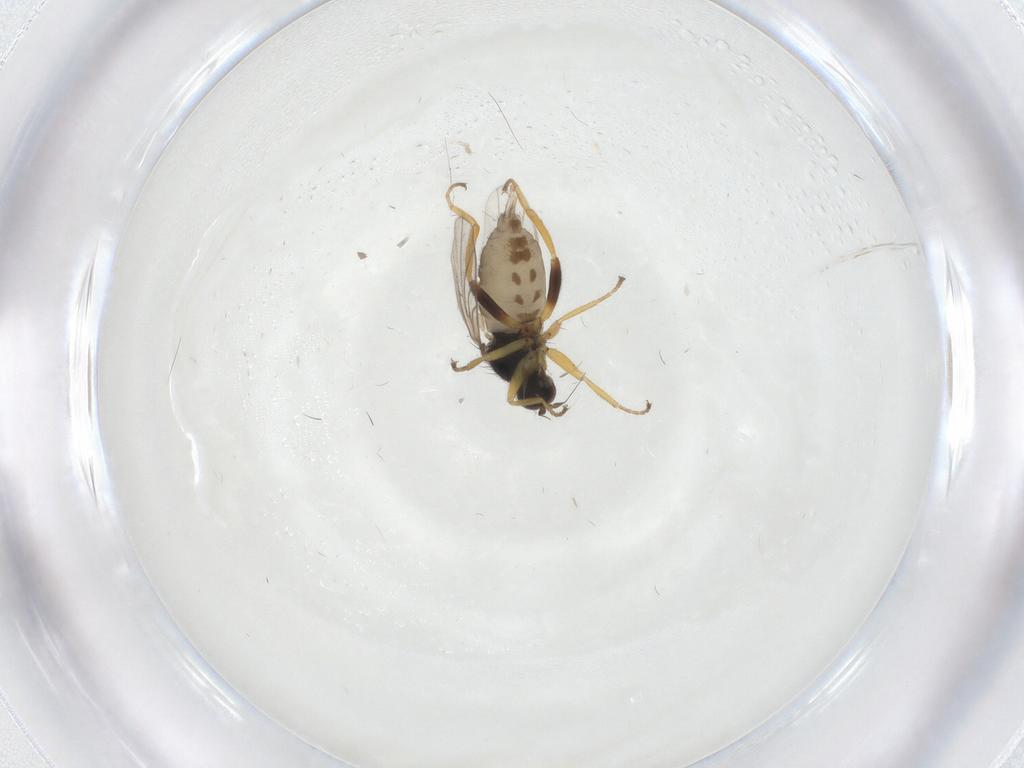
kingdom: Animalia
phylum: Arthropoda
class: Insecta
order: Diptera
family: Hybotidae
